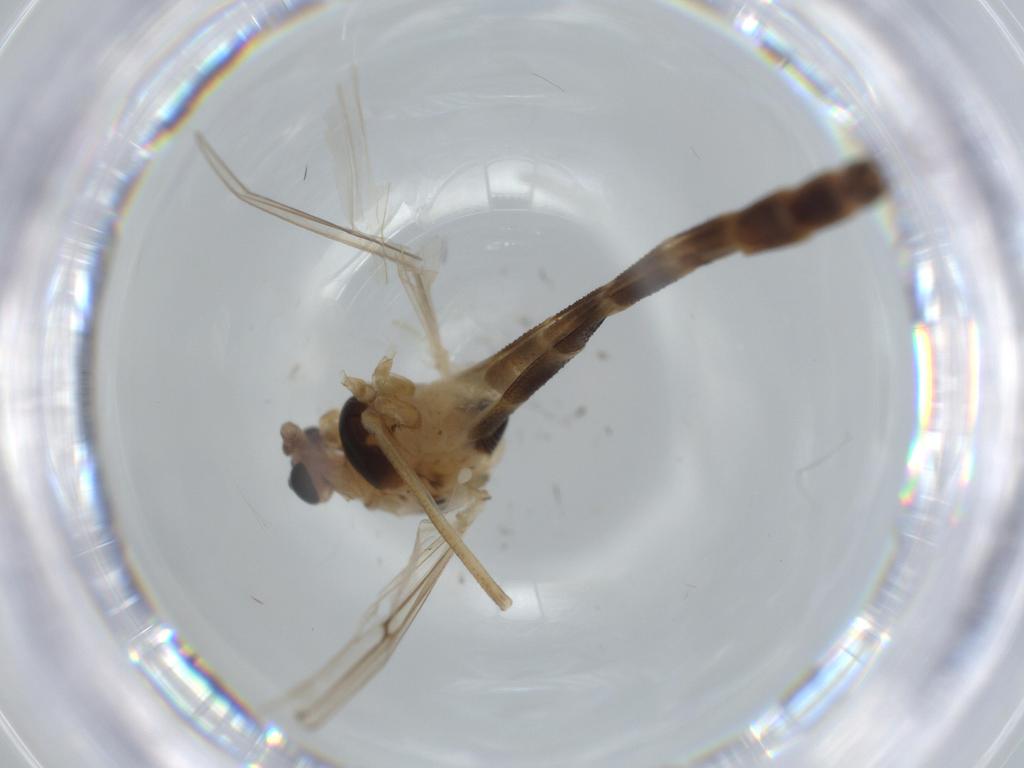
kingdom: Animalia
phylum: Arthropoda
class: Insecta
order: Diptera
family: Chironomidae
